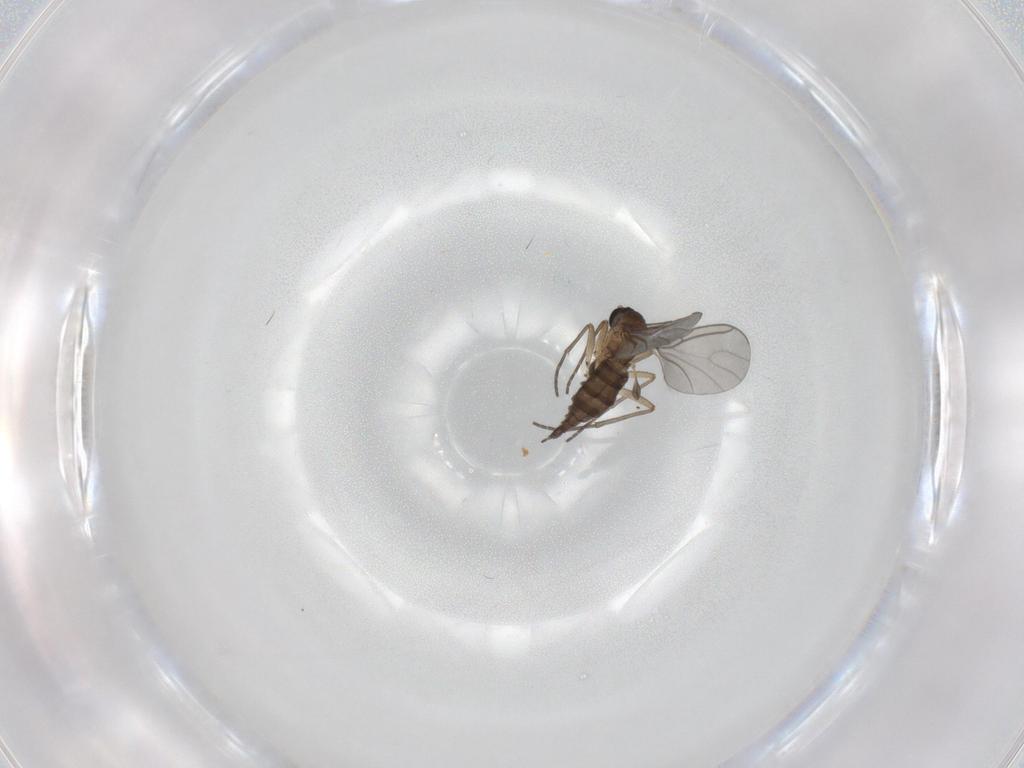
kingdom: Animalia
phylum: Arthropoda
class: Insecta
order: Diptera
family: Sciaridae
